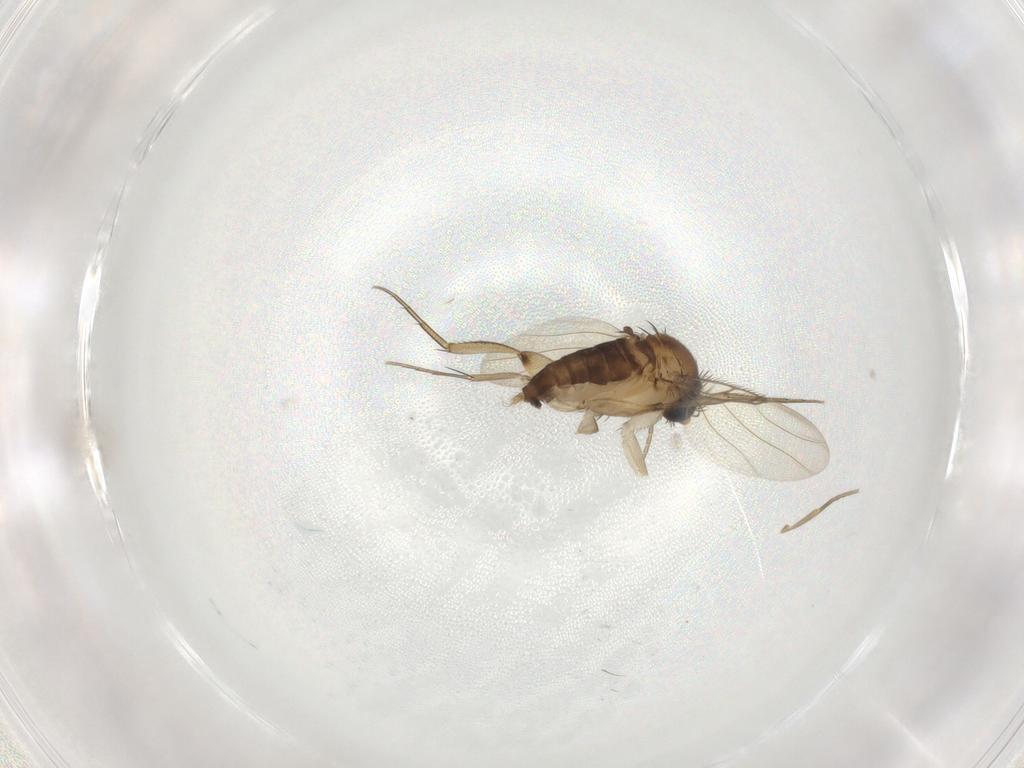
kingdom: Animalia
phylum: Arthropoda
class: Insecta
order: Diptera
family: Phoridae
